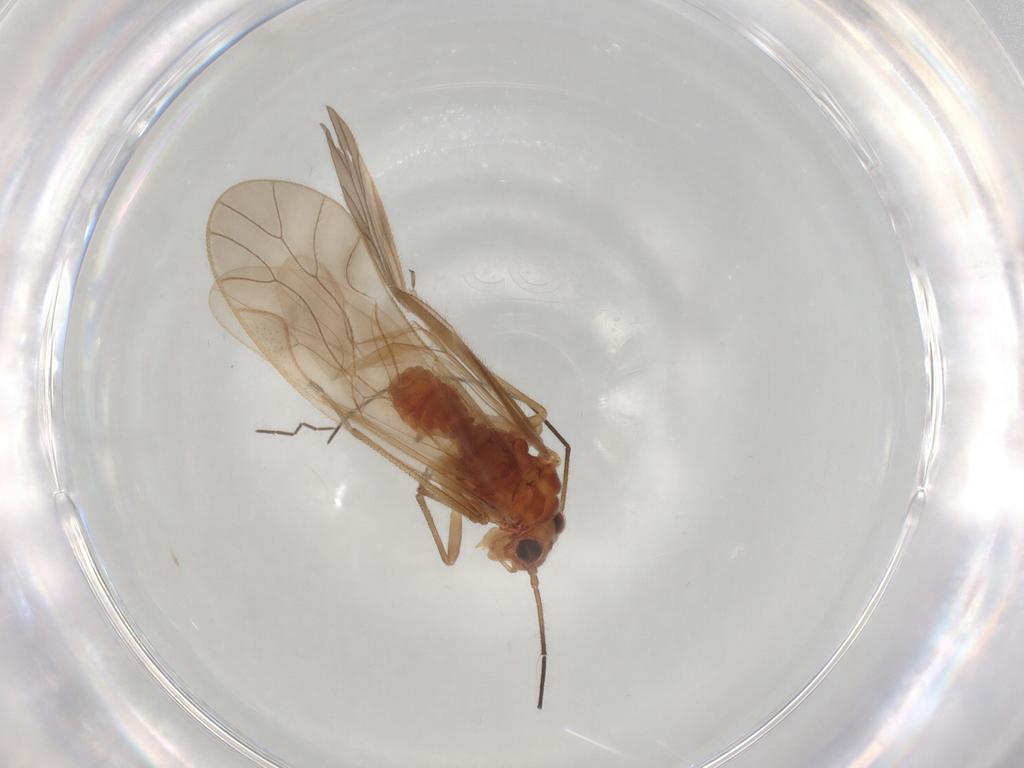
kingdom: Animalia
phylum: Arthropoda
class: Insecta
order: Psocodea
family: Caeciliusidae
